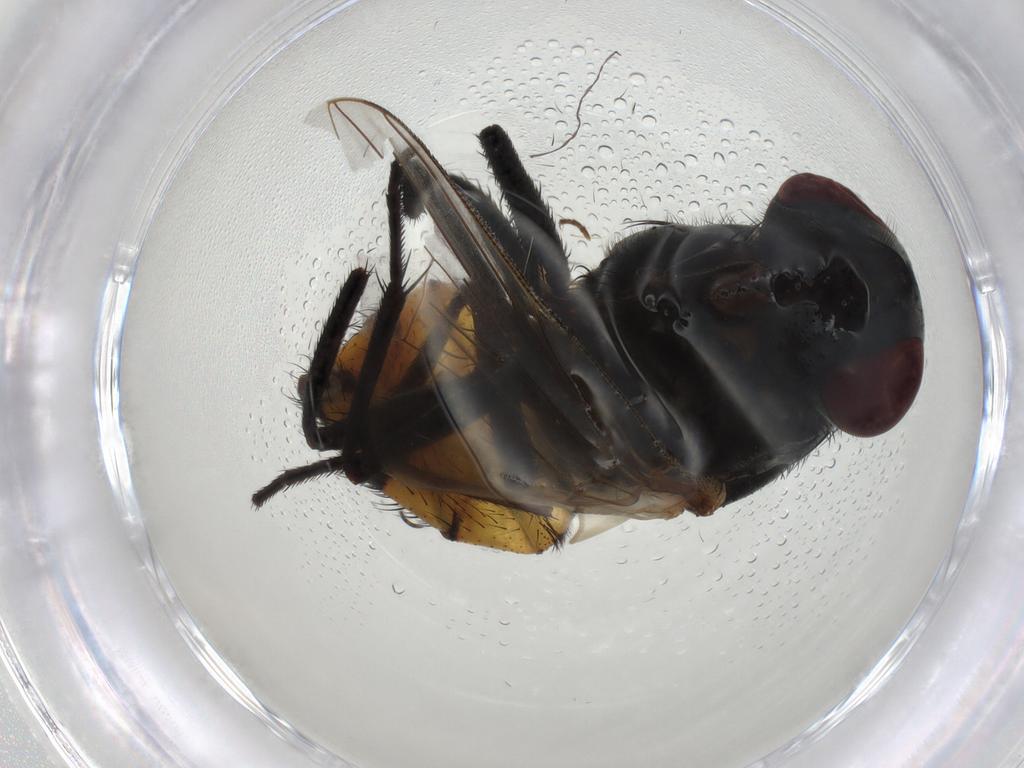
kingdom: Animalia
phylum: Arthropoda
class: Insecta
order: Diptera
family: Muscidae
